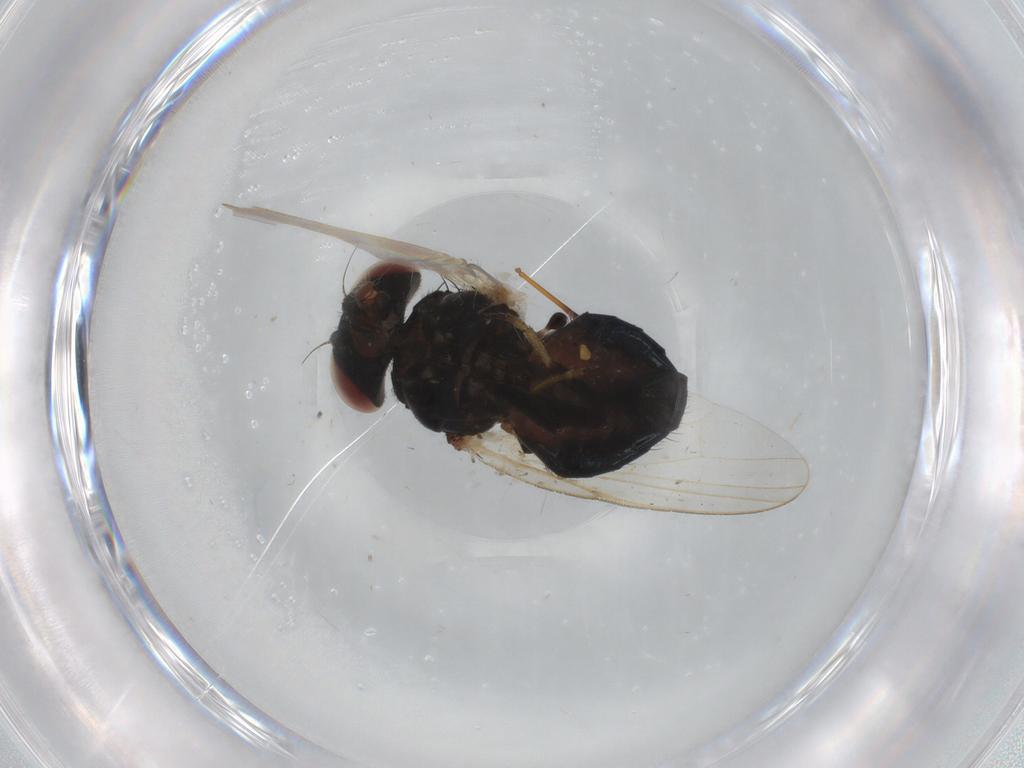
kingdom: Animalia
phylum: Arthropoda
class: Insecta
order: Diptera
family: Lonchaeidae
